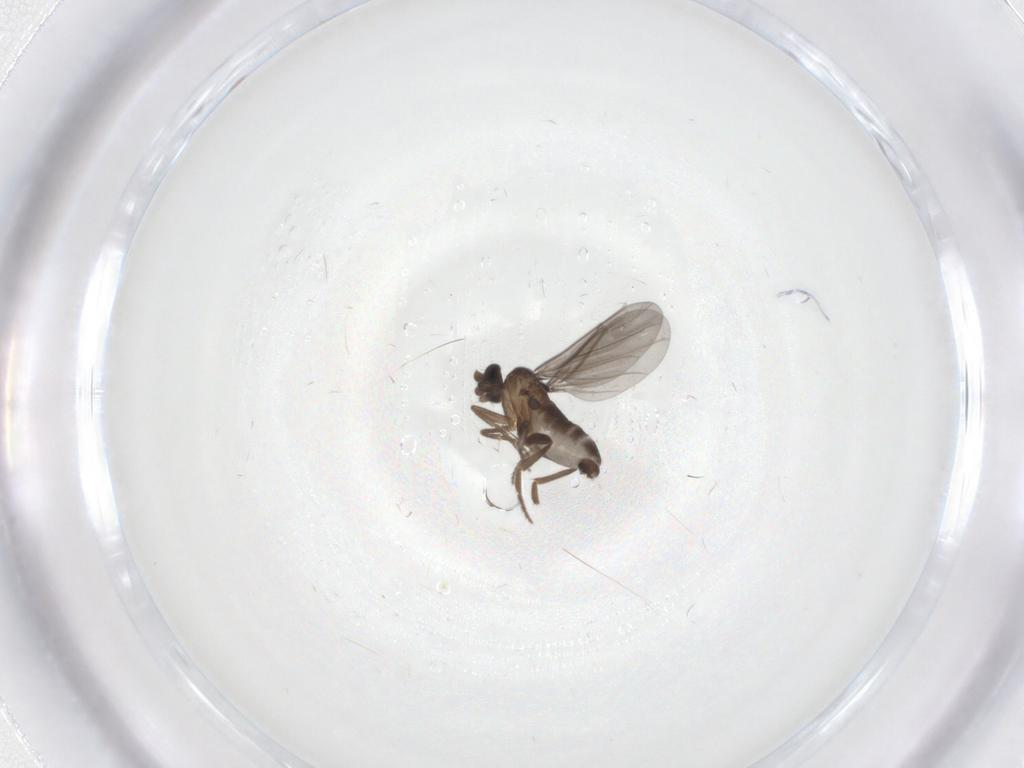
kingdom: Animalia
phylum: Arthropoda
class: Insecta
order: Diptera
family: Phoridae
